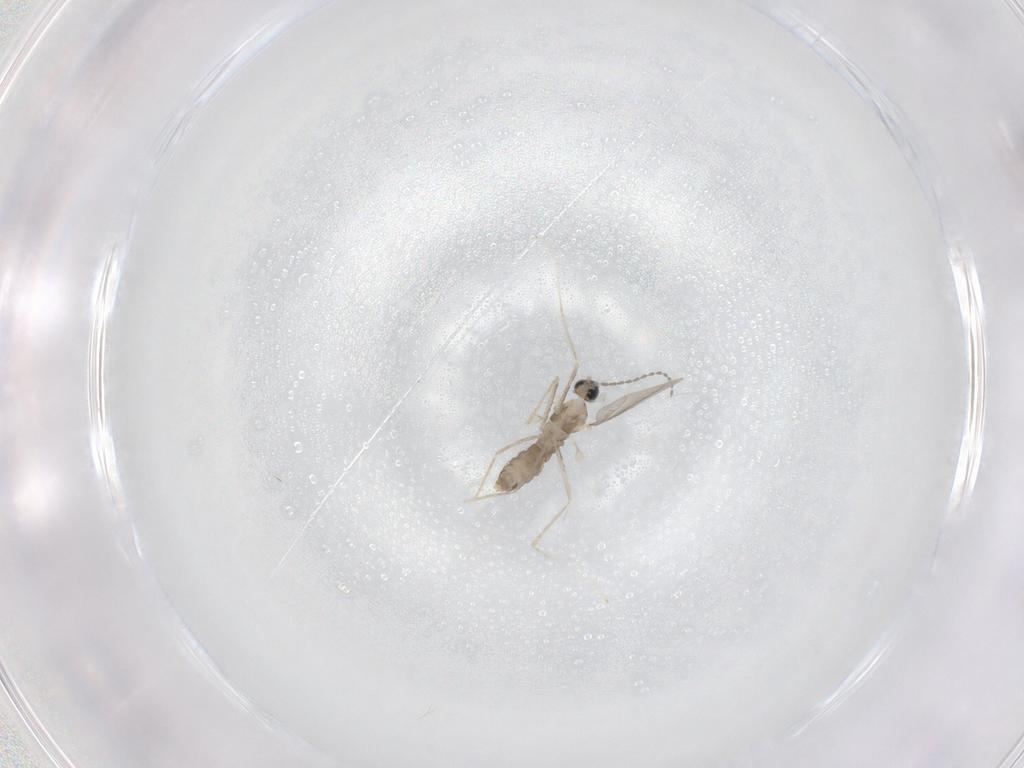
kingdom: Animalia
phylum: Arthropoda
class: Insecta
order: Diptera
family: Cecidomyiidae
